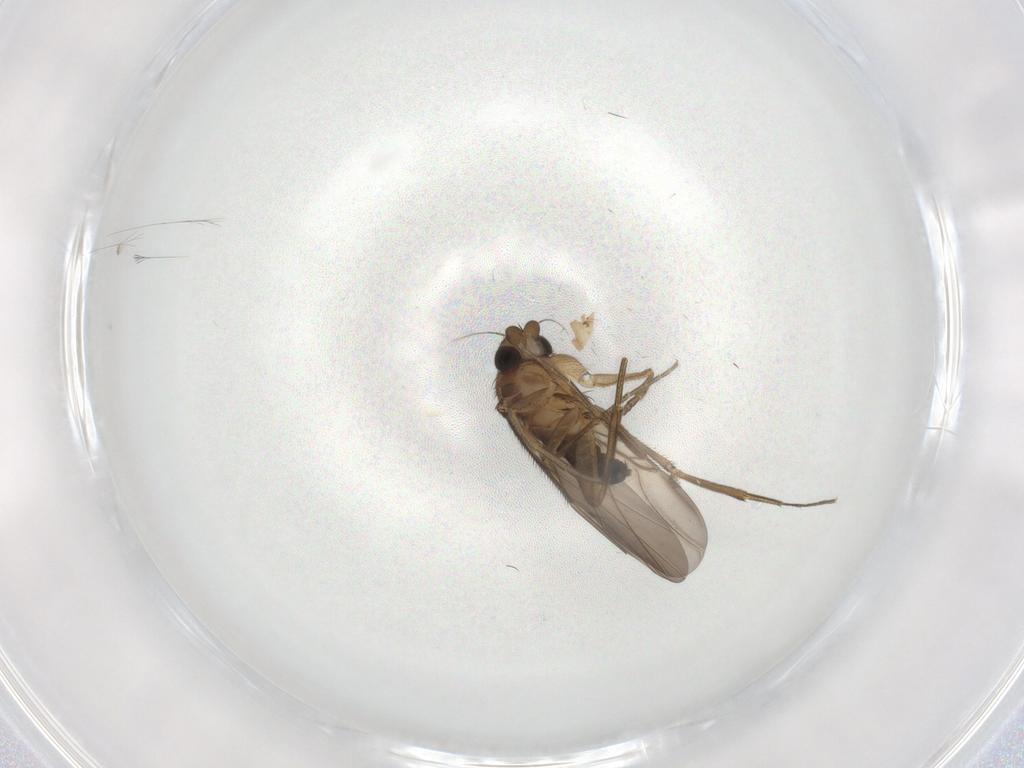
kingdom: Animalia
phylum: Arthropoda
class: Insecta
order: Diptera
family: Phoridae
